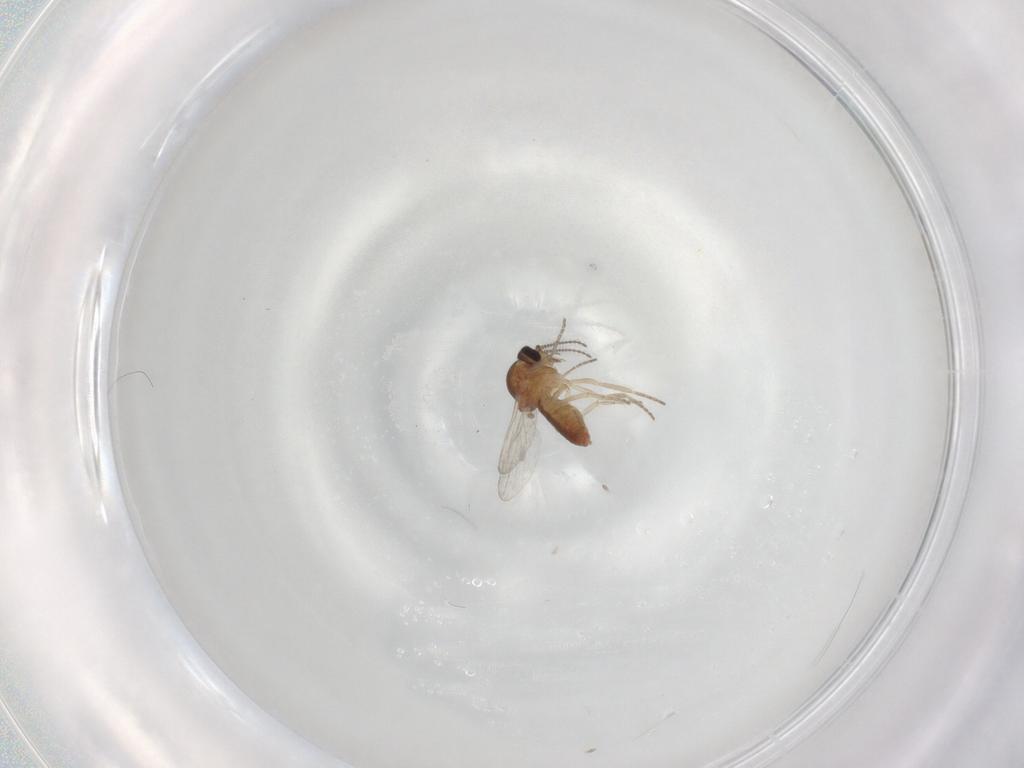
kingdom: Animalia
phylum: Arthropoda
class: Insecta
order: Diptera
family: Ceratopogonidae
